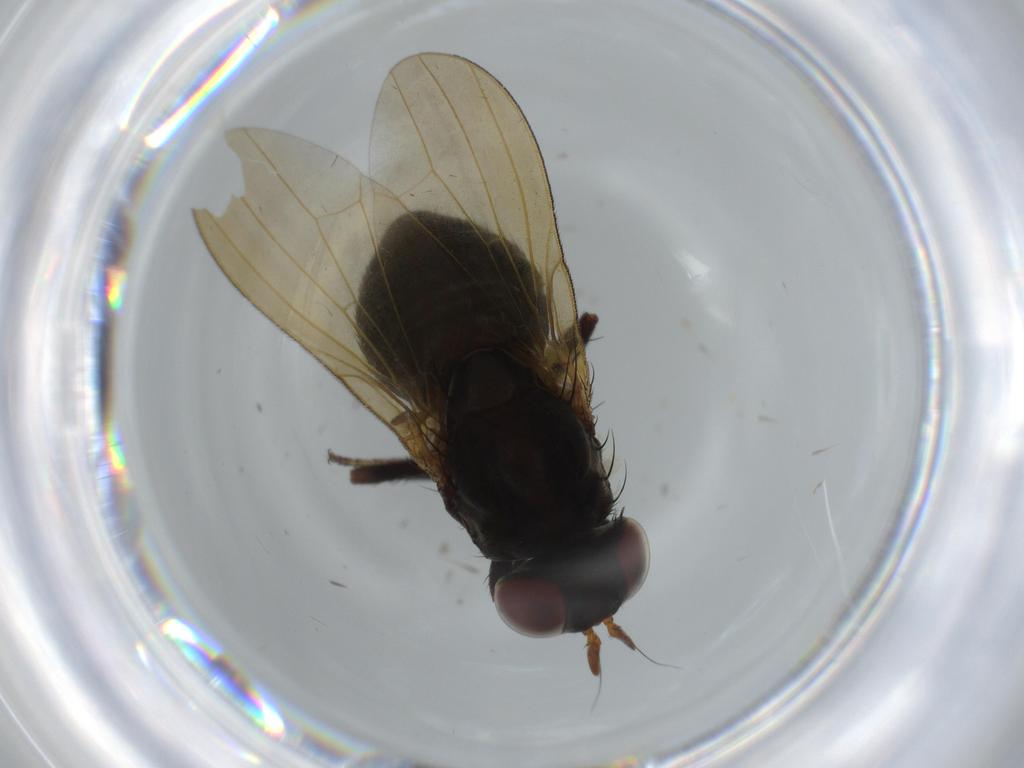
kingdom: Animalia
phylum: Arthropoda
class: Insecta
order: Diptera
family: Lauxaniidae
